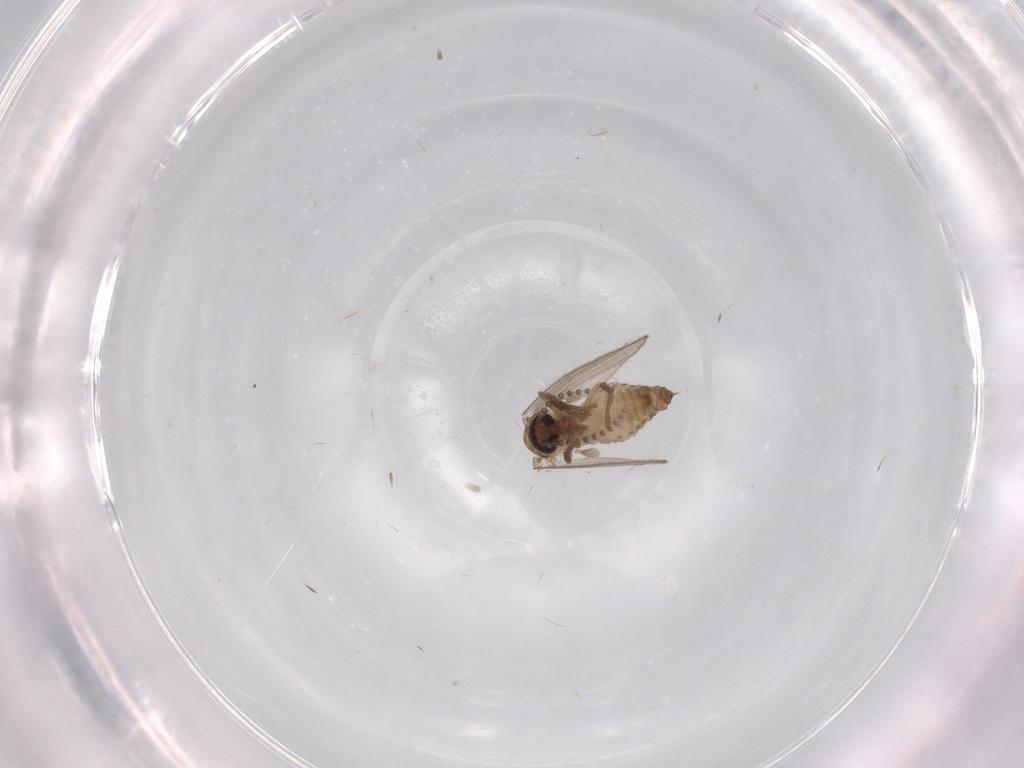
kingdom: Animalia
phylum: Arthropoda
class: Insecta
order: Diptera
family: Psychodidae
